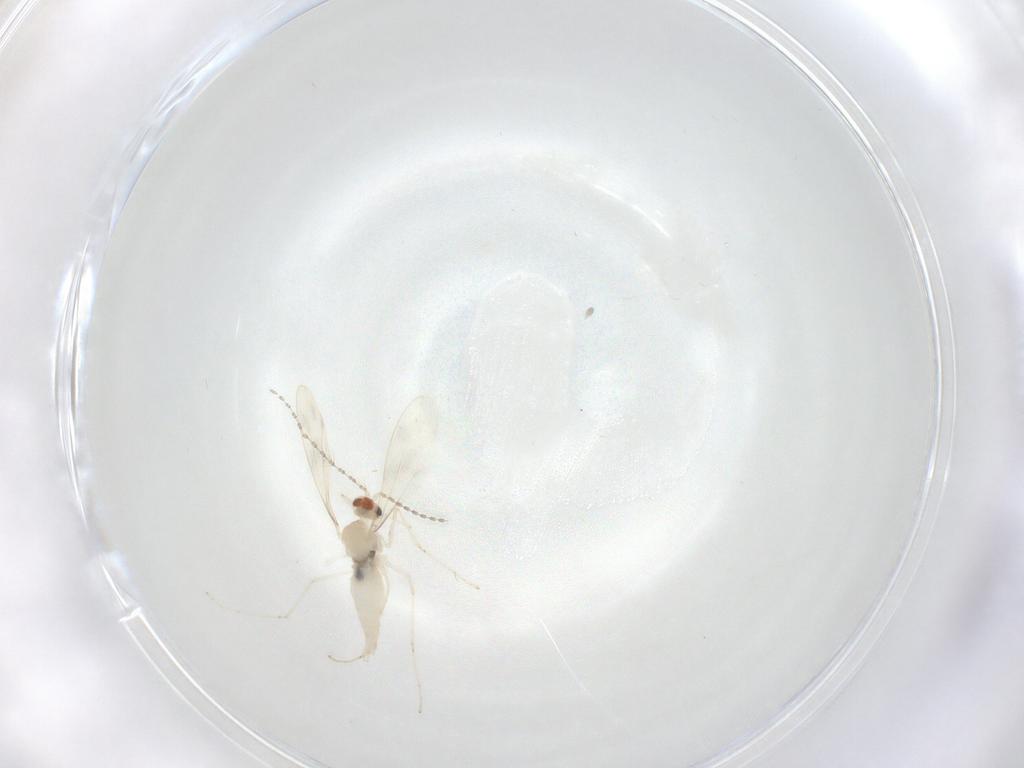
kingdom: Animalia
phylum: Arthropoda
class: Insecta
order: Diptera
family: Cecidomyiidae
